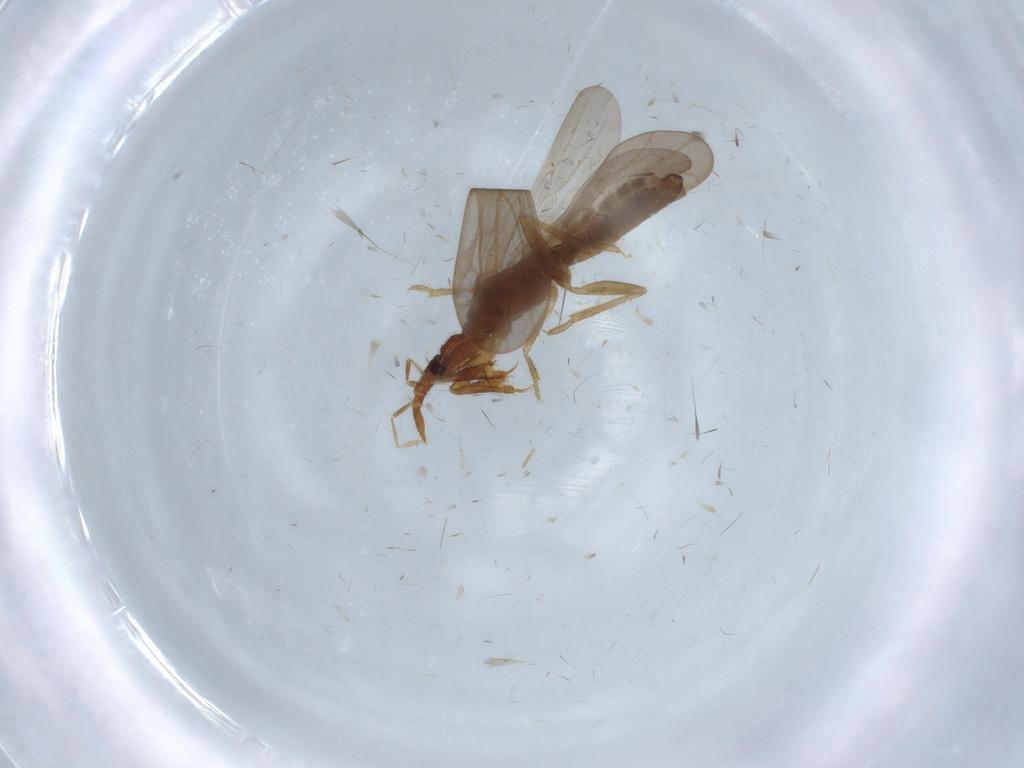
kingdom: Animalia
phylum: Arthropoda
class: Insecta
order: Hemiptera
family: Enicocephalidae
